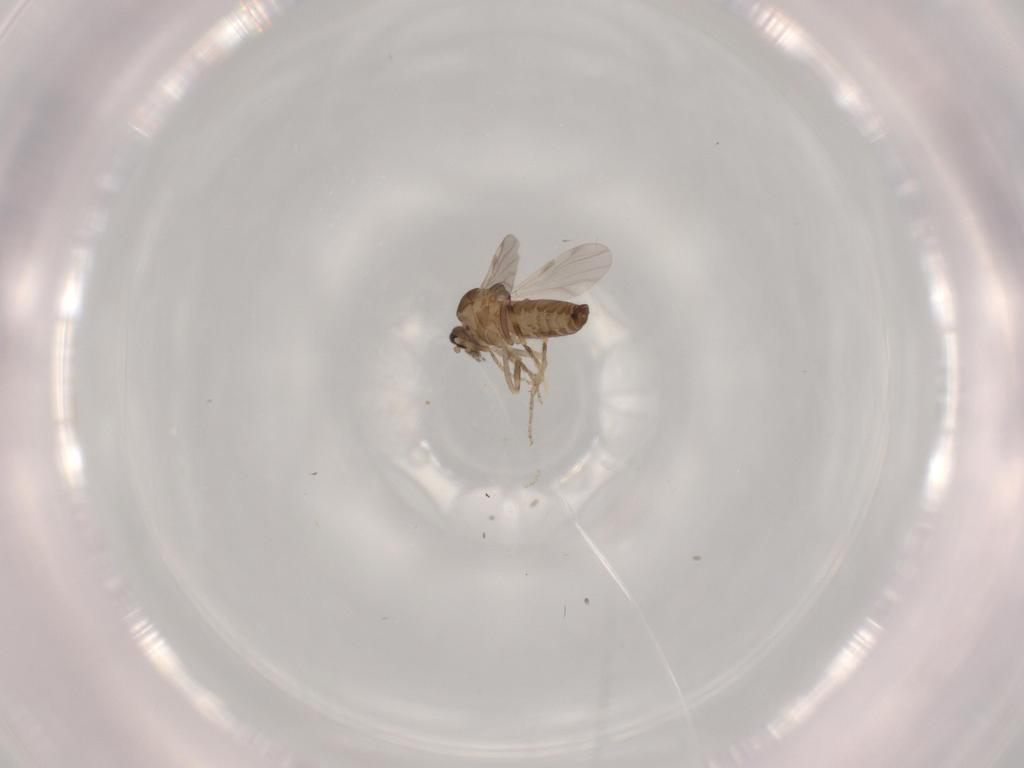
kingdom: Animalia
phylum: Arthropoda
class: Insecta
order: Diptera
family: Ceratopogonidae
